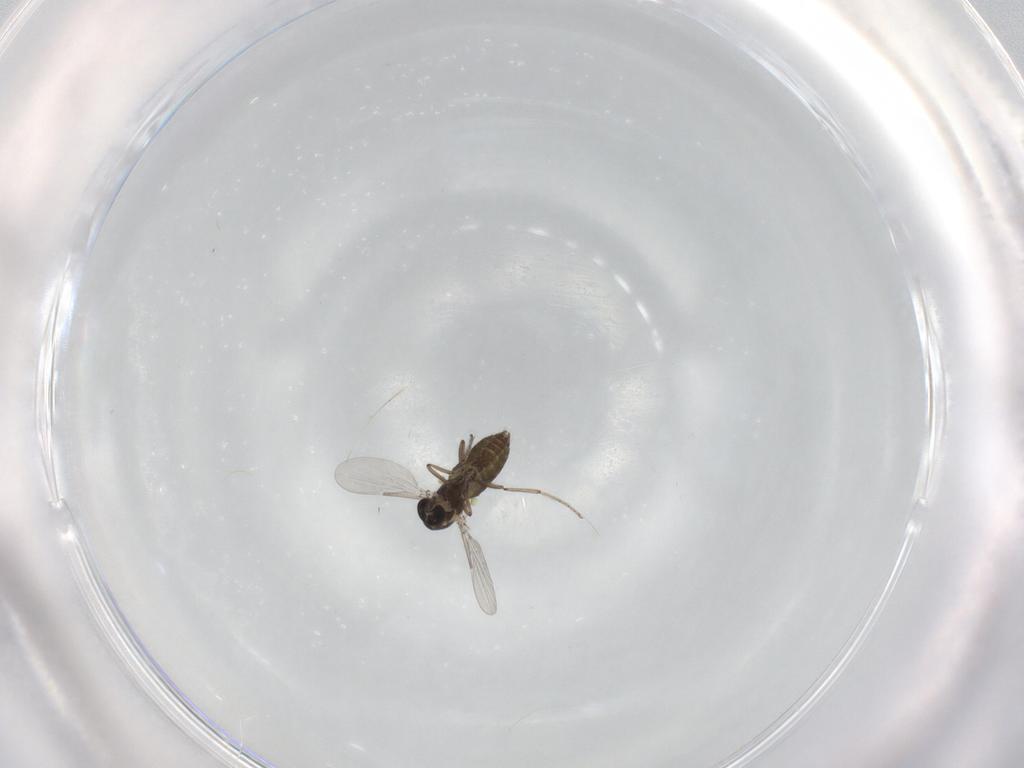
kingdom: Animalia
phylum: Arthropoda
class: Insecta
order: Diptera
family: Ceratopogonidae
